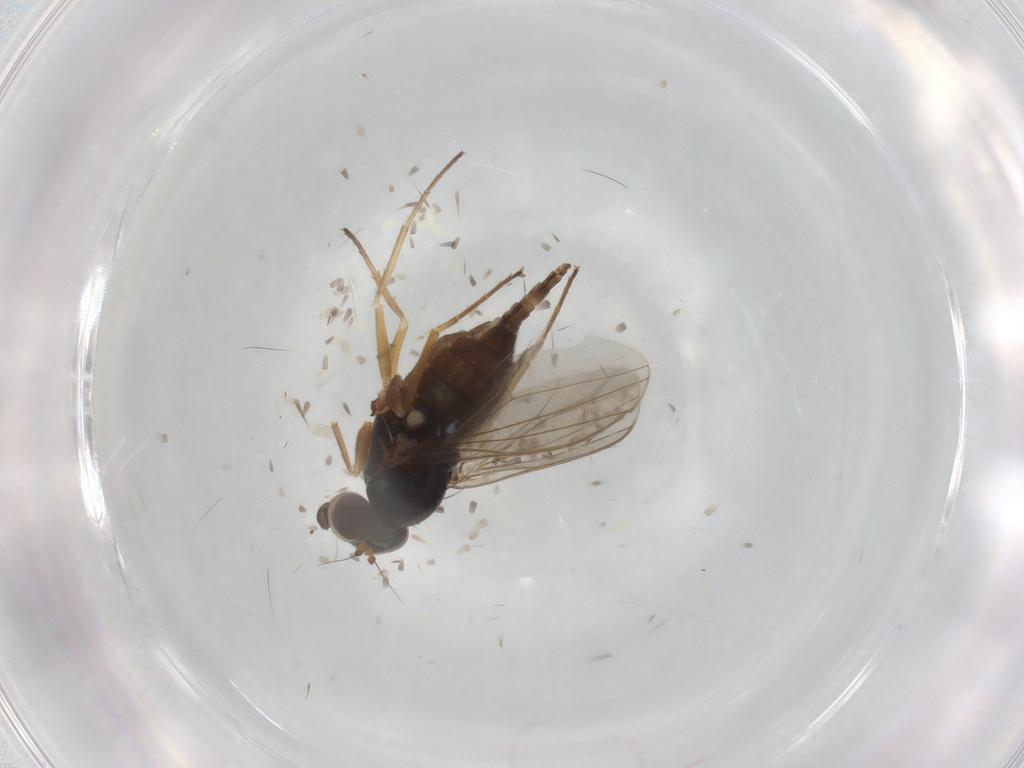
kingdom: Animalia
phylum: Arthropoda
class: Insecta
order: Diptera
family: Dolichopodidae
